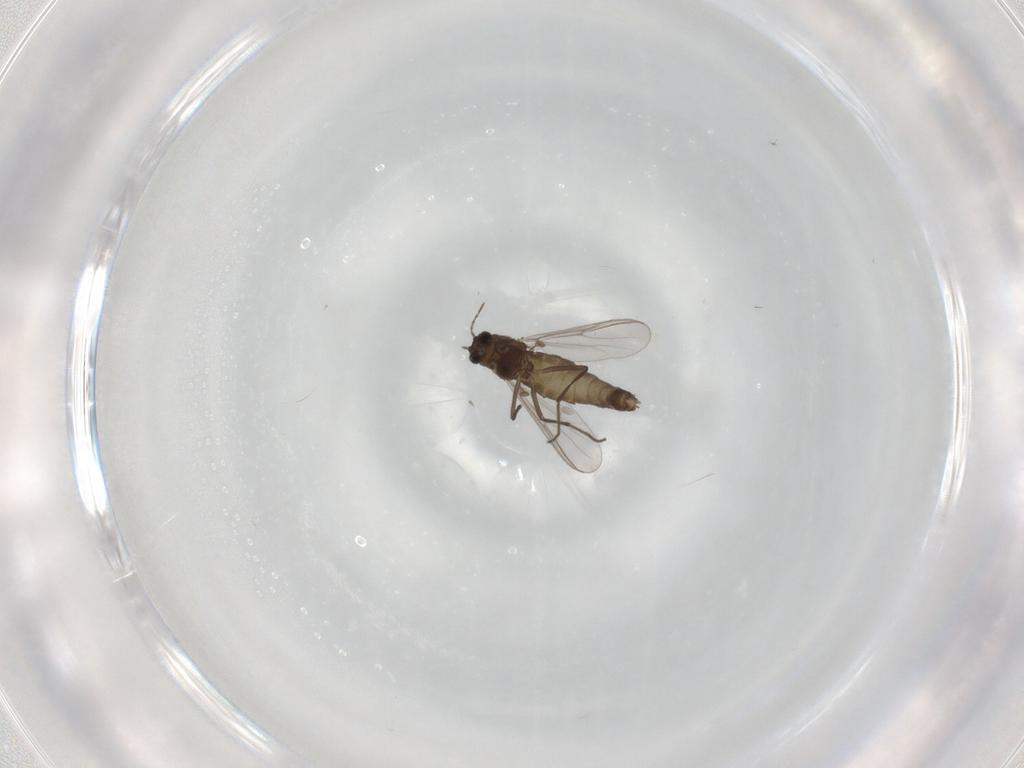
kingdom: Animalia
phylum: Arthropoda
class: Insecta
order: Diptera
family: Chironomidae
